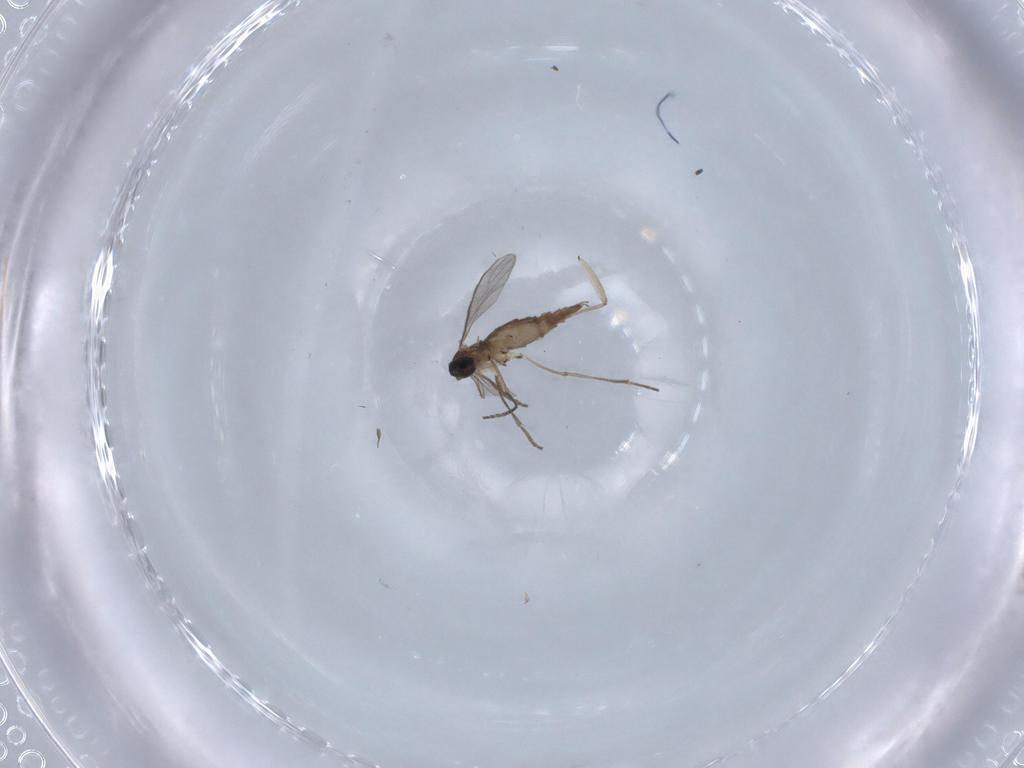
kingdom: Animalia
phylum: Arthropoda
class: Insecta
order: Diptera
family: Sciaridae
